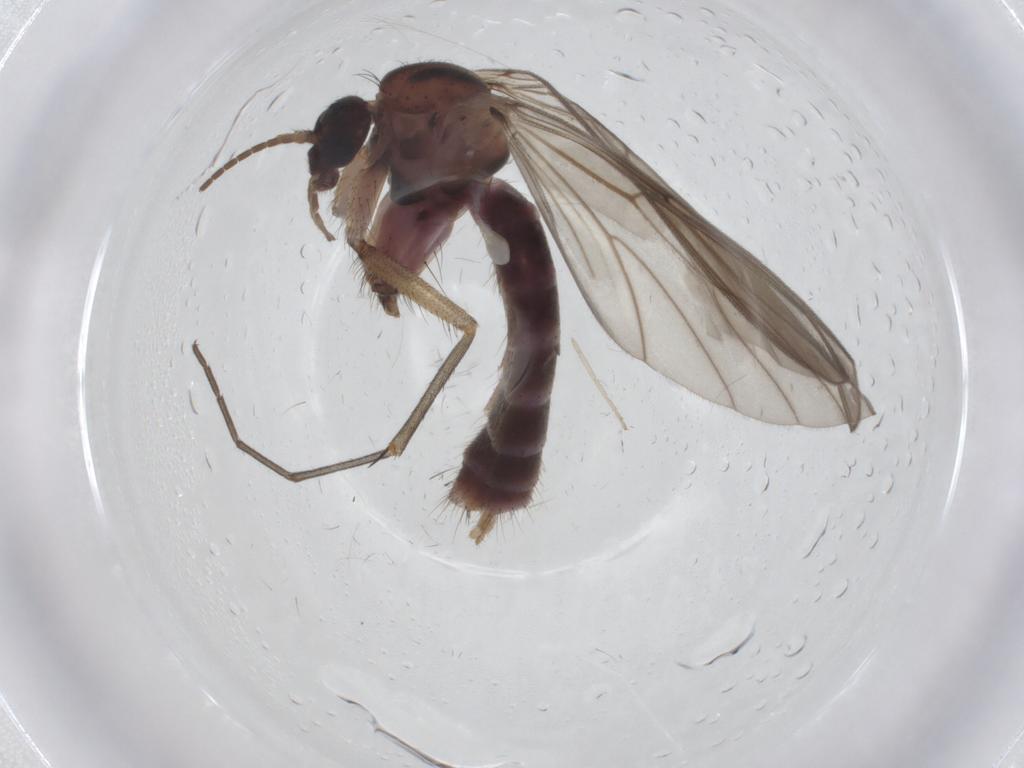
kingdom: Animalia
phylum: Arthropoda
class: Insecta
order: Diptera
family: Mycetophilidae
